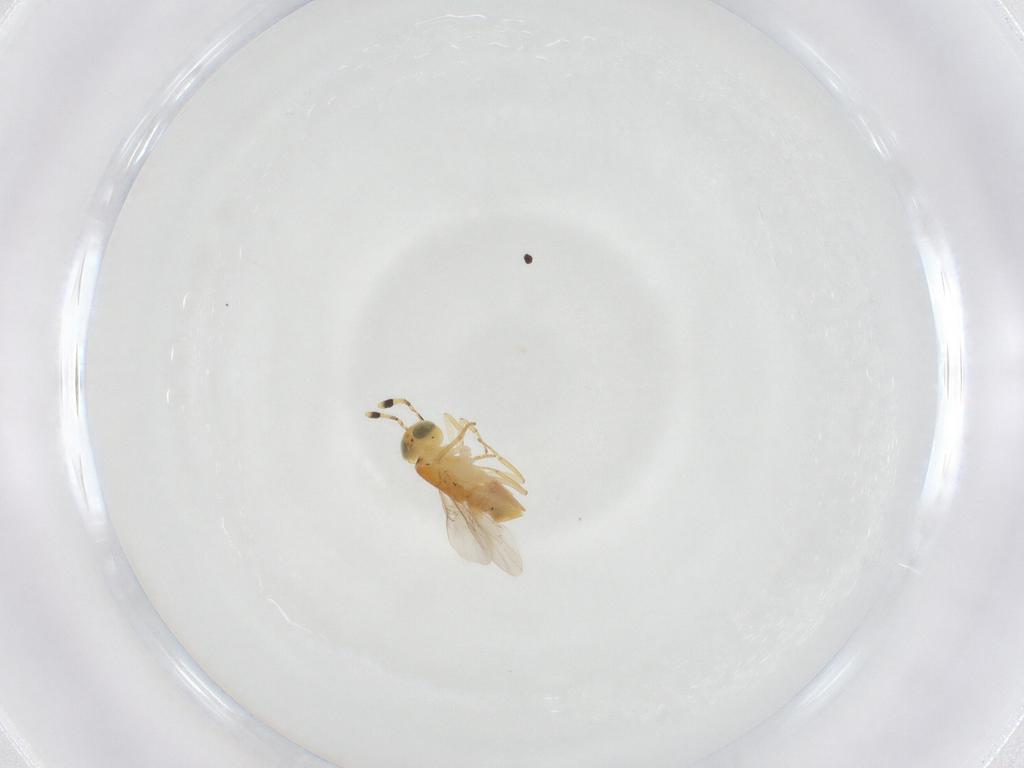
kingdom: Animalia
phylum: Arthropoda
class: Insecta
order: Hymenoptera
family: Encyrtidae
